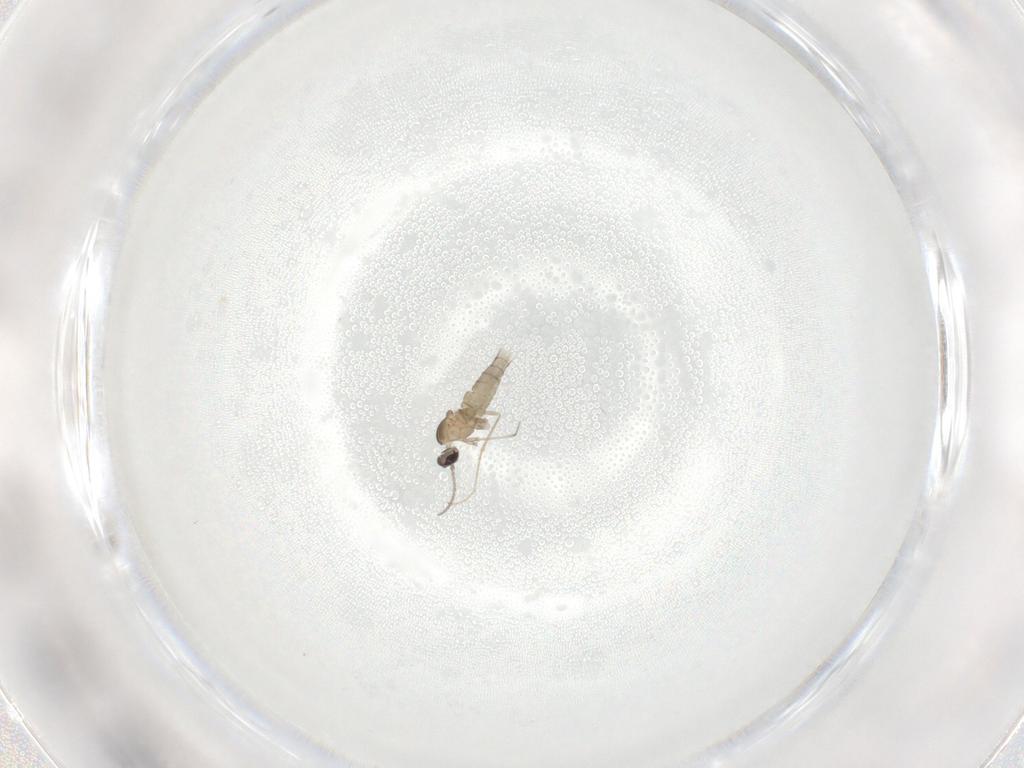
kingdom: Animalia
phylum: Arthropoda
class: Insecta
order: Diptera
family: Cecidomyiidae
